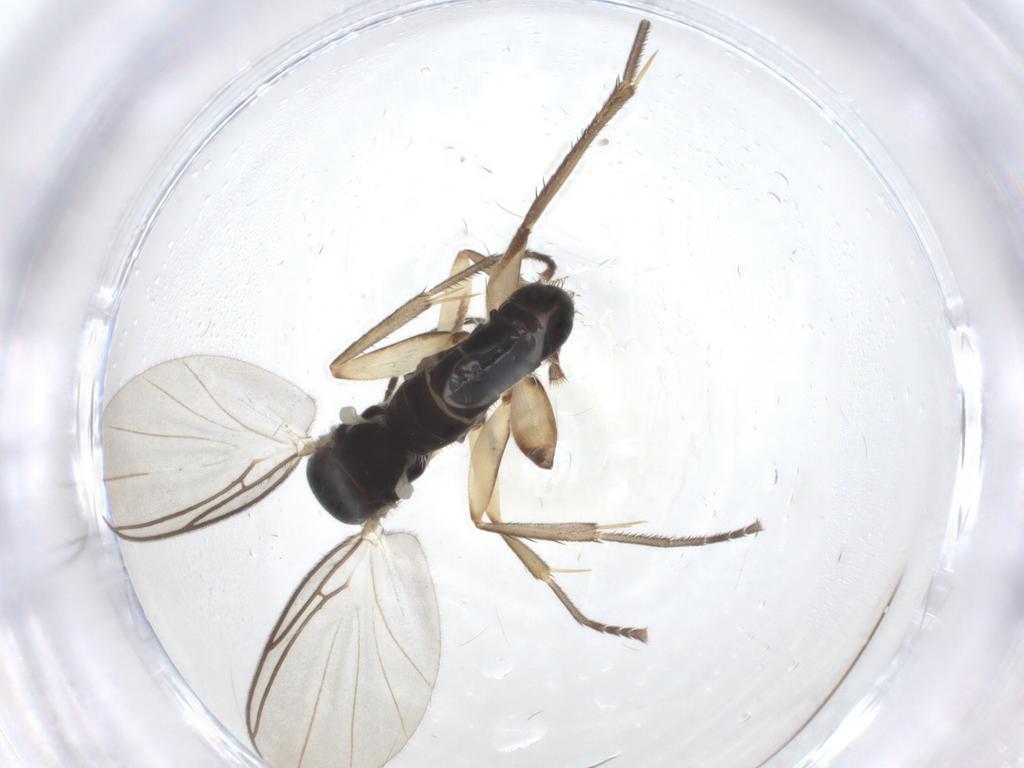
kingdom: Animalia
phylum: Arthropoda
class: Insecta
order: Diptera
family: Mycetophilidae
